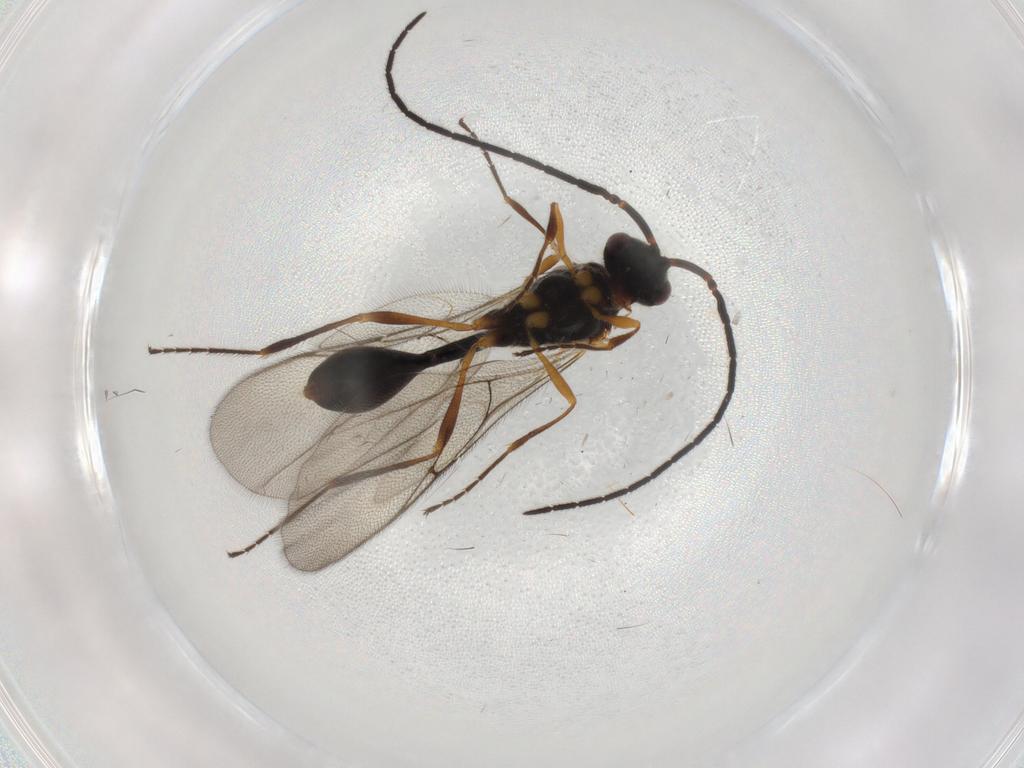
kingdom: Animalia
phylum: Arthropoda
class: Insecta
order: Hymenoptera
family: Diapriidae
